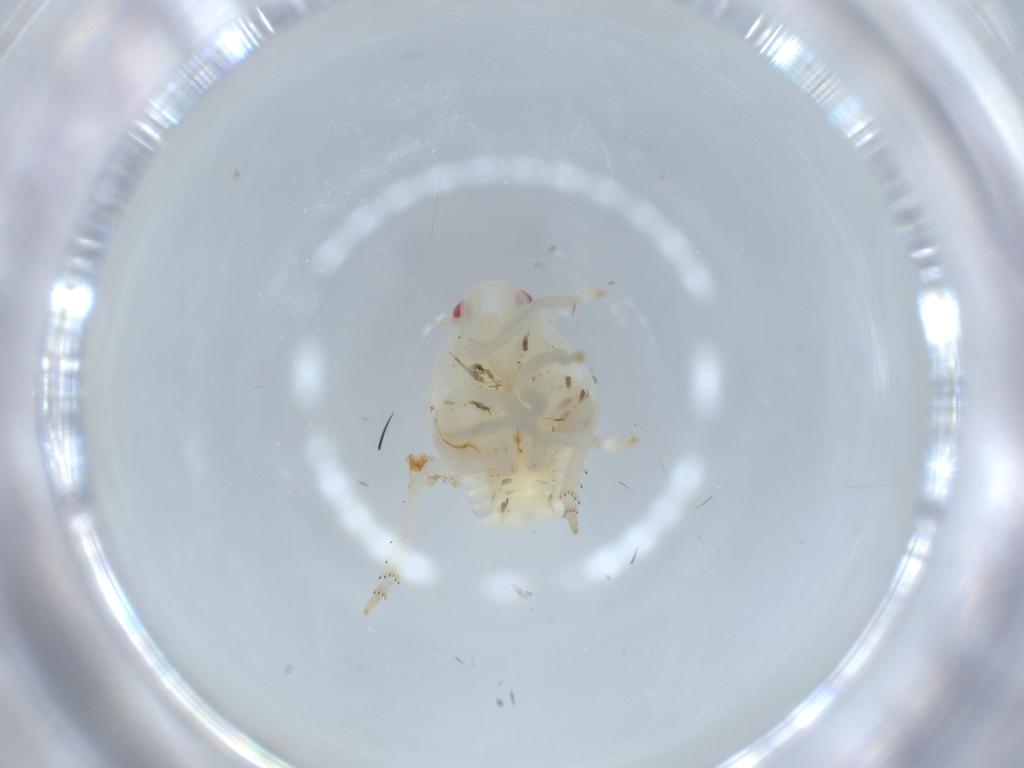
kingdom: Animalia
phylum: Arthropoda
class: Insecta
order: Hemiptera
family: Flatidae
